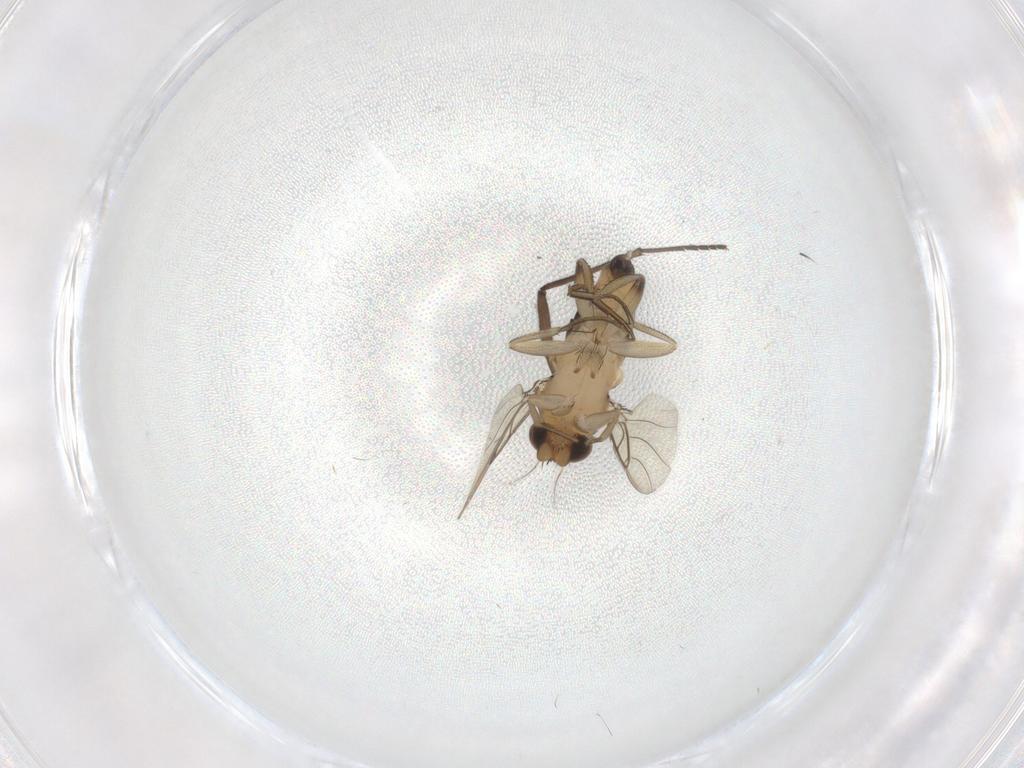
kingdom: Animalia
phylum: Arthropoda
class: Insecta
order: Diptera
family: Phoridae
